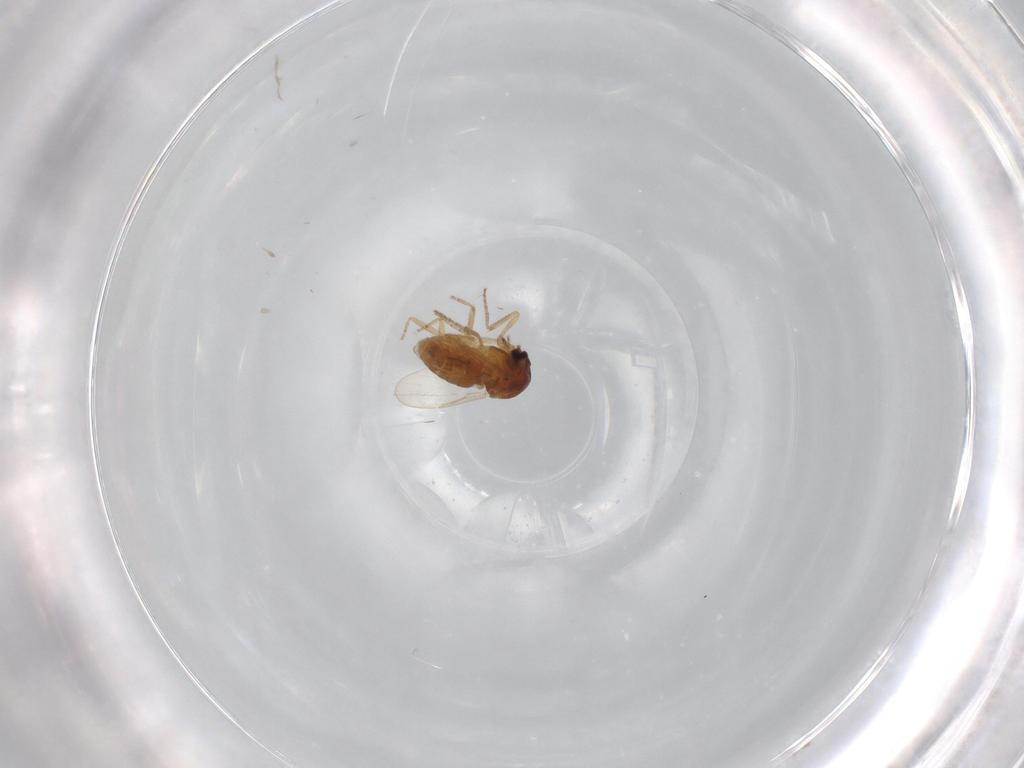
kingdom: Animalia
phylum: Arthropoda
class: Insecta
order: Diptera
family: Ceratopogonidae
